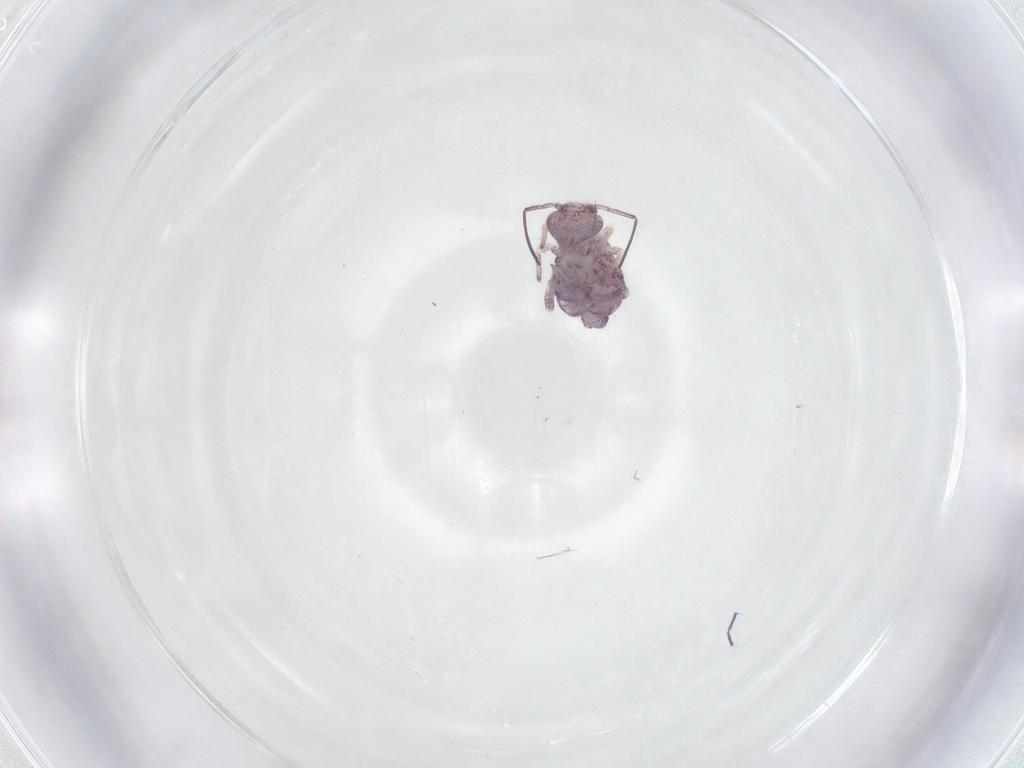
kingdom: Animalia
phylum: Arthropoda
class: Collembola
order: Symphypleona
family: Sminthuridae
